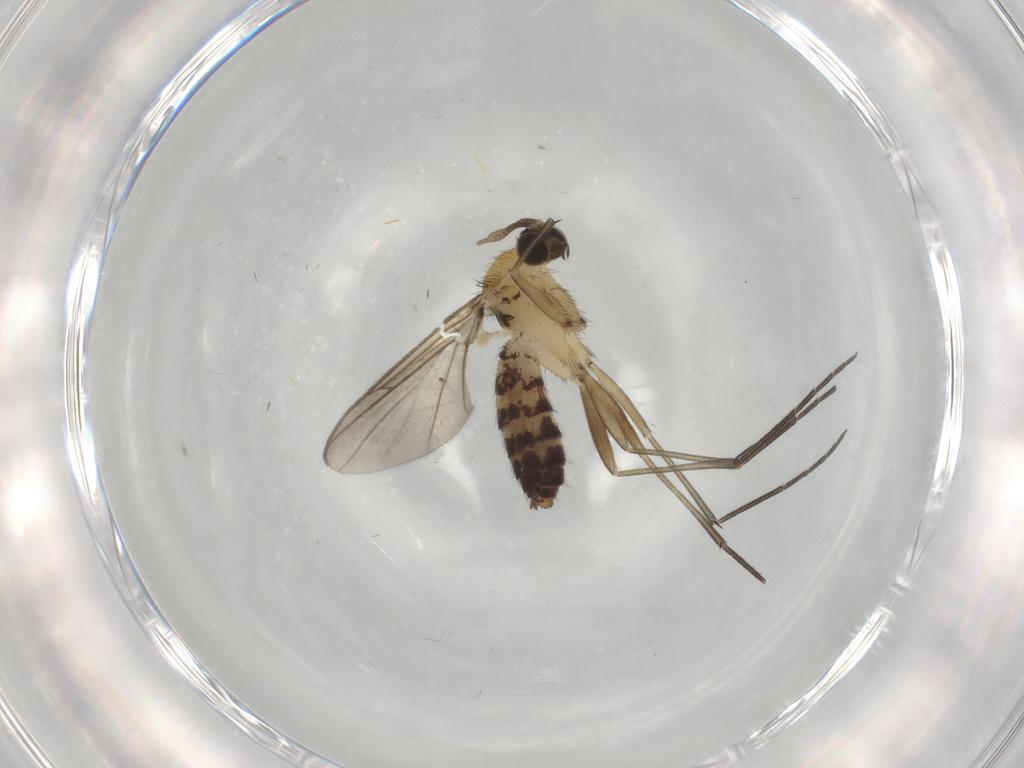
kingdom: Animalia
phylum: Arthropoda
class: Insecta
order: Diptera
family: Keroplatidae
